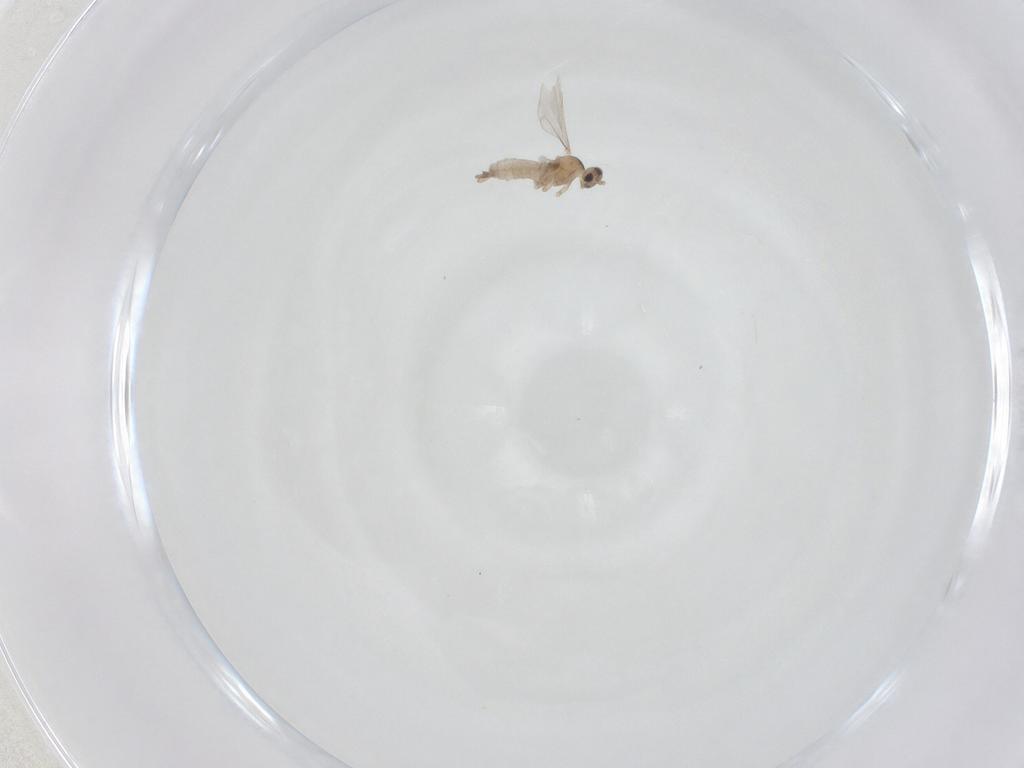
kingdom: Animalia
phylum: Arthropoda
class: Insecta
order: Diptera
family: Cecidomyiidae
